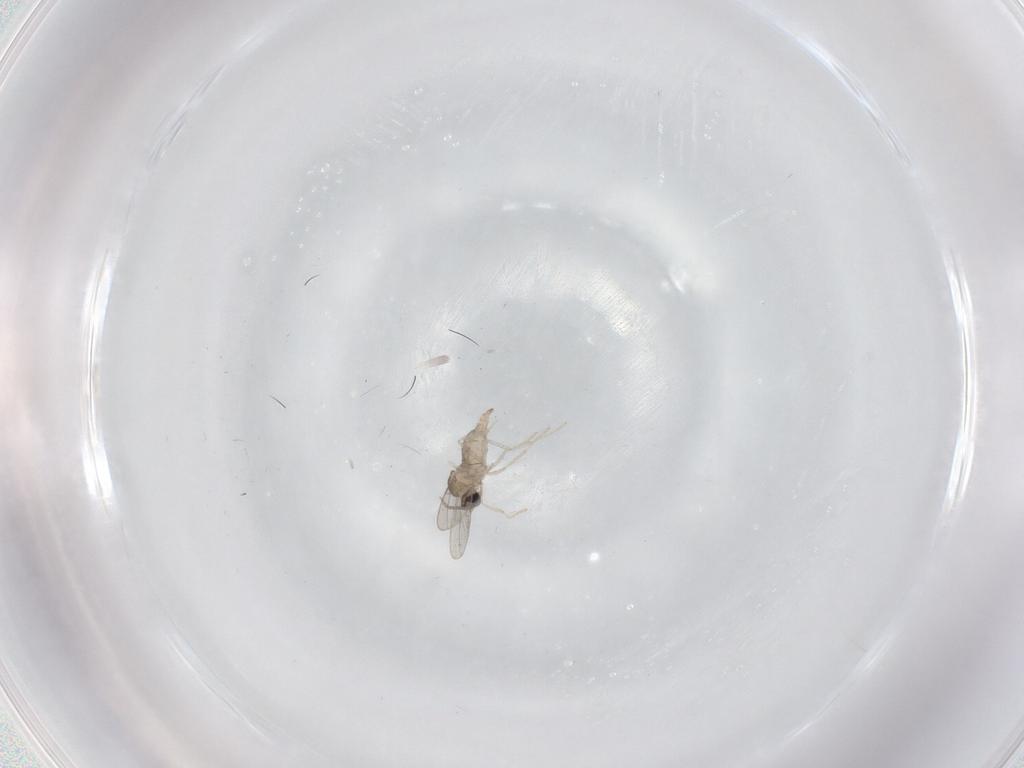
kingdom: Animalia
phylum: Arthropoda
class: Insecta
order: Diptera
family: Cecidomyiidae
